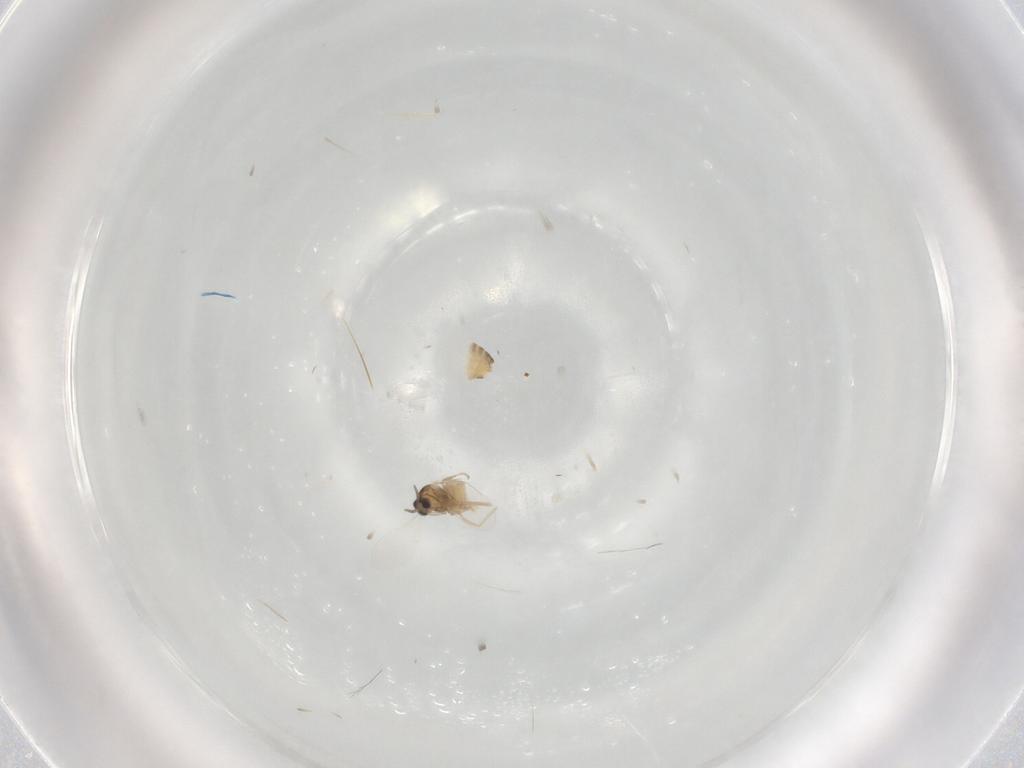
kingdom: Animalia
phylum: Arthropoda
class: Insecta
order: Diptera
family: Cecidomyiidae
